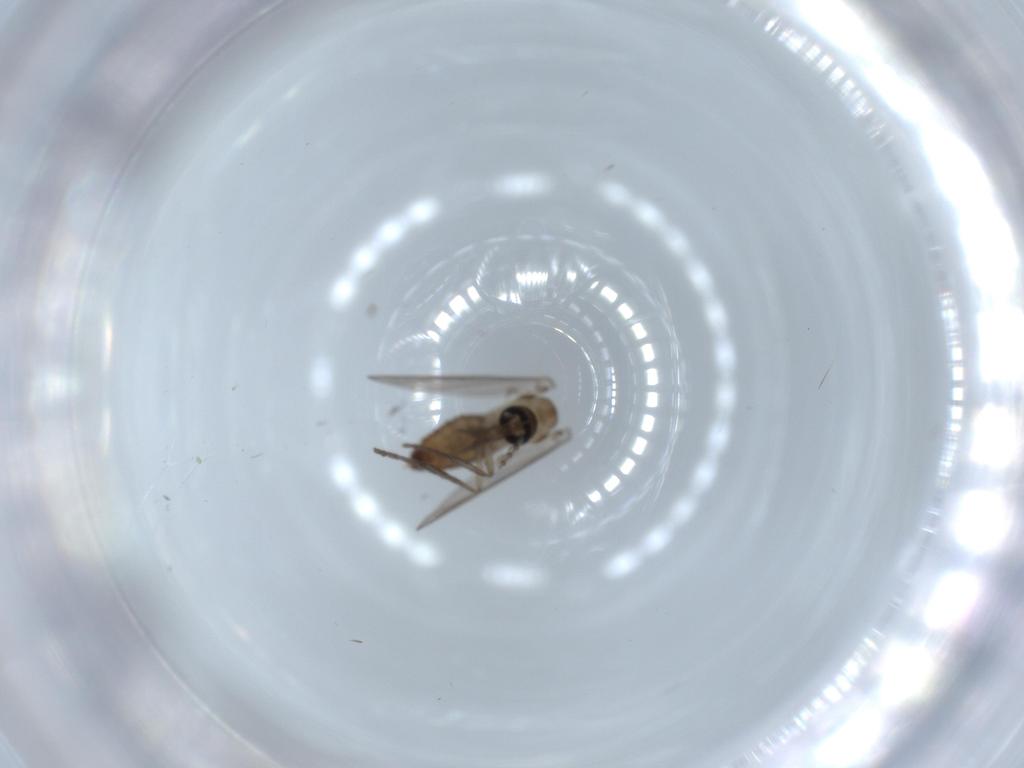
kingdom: Animalia
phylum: Arthropoda
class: Insecta
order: Diptera
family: Psychodidae
